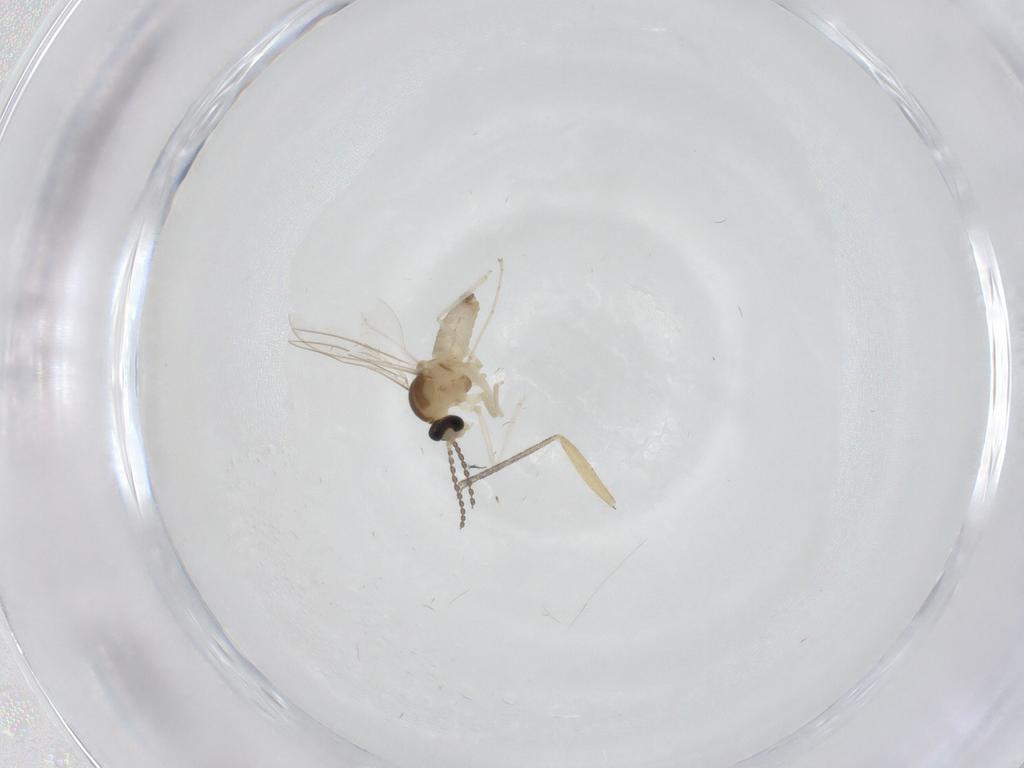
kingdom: Animalia
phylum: Arthropoda
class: Insecta
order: Diptera
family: Cecidomyiidae
